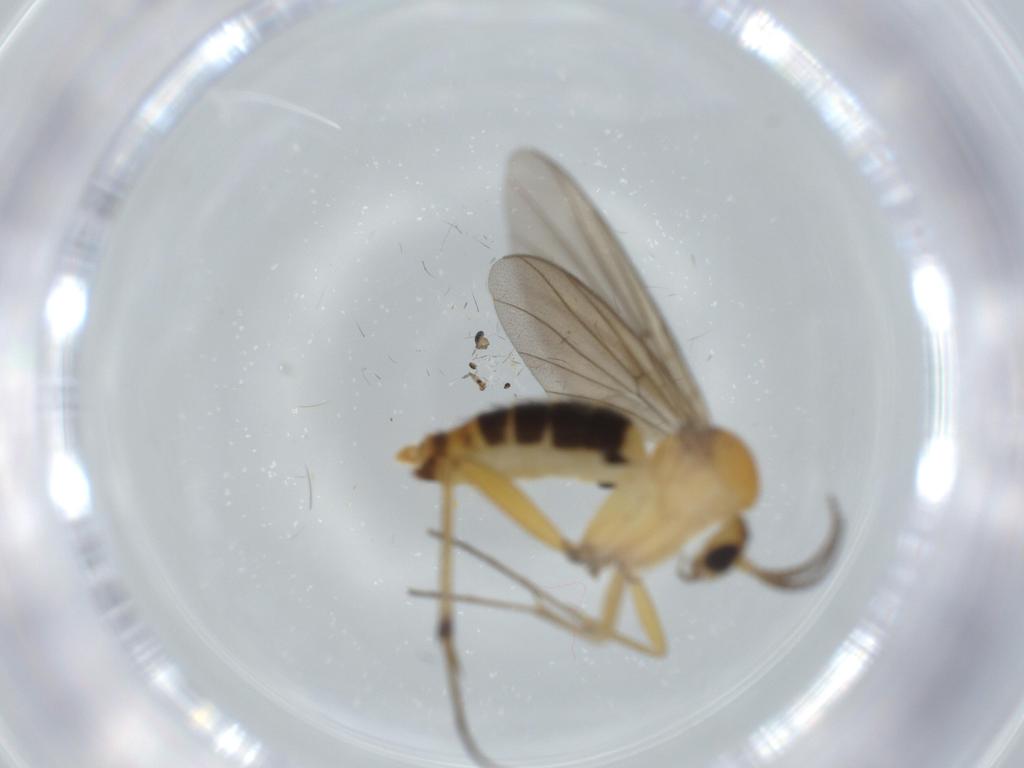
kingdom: Animalia
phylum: Arthropoda
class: Insecta
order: Diptera
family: Mycetophilidae
